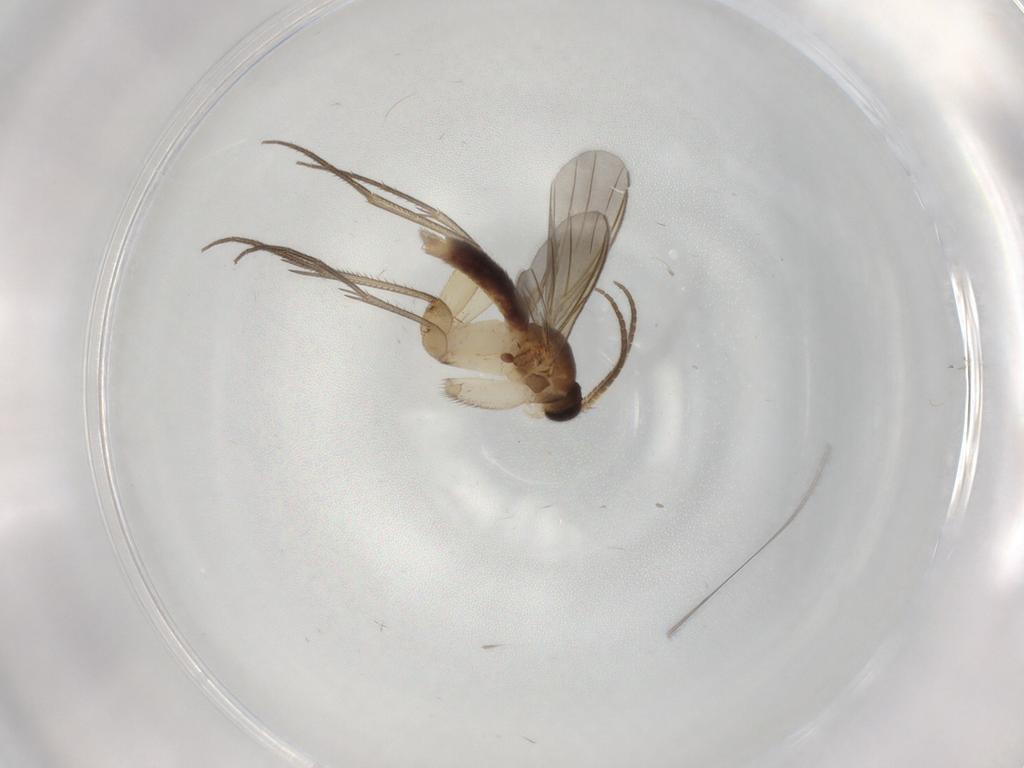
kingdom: Animalia
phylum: Arthropoda
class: Insecta
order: Diptera
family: Mycetophilidae
